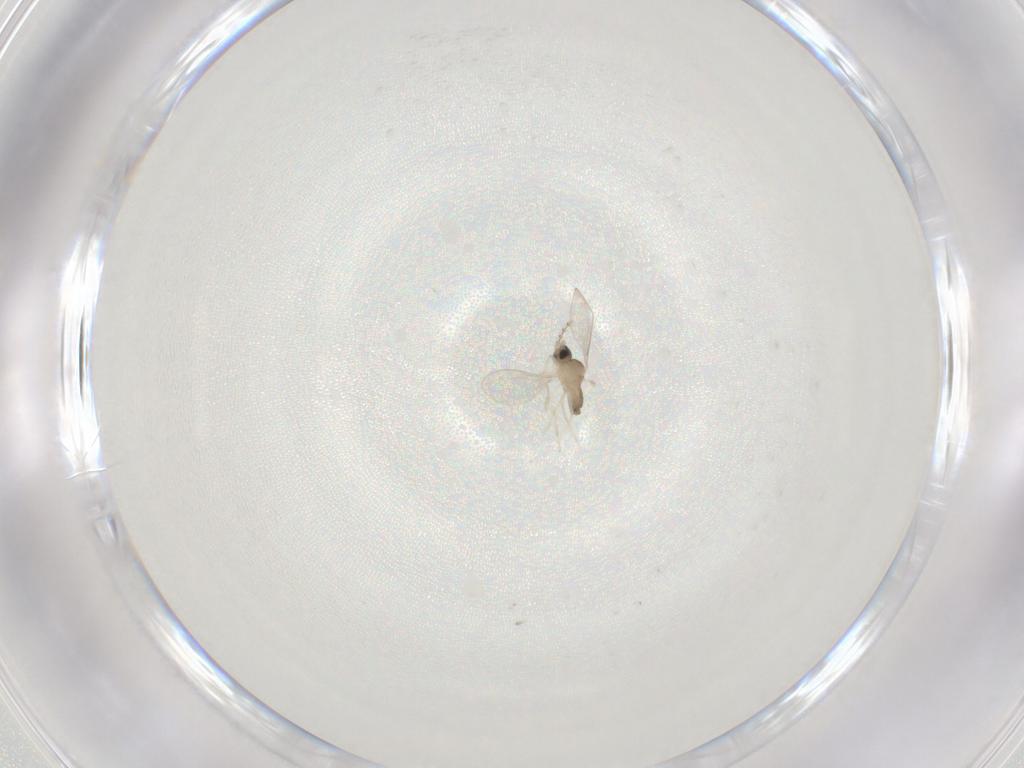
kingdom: Animalia
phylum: Arthropoda
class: Insecta
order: Diptera
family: Cecidomyiidae
